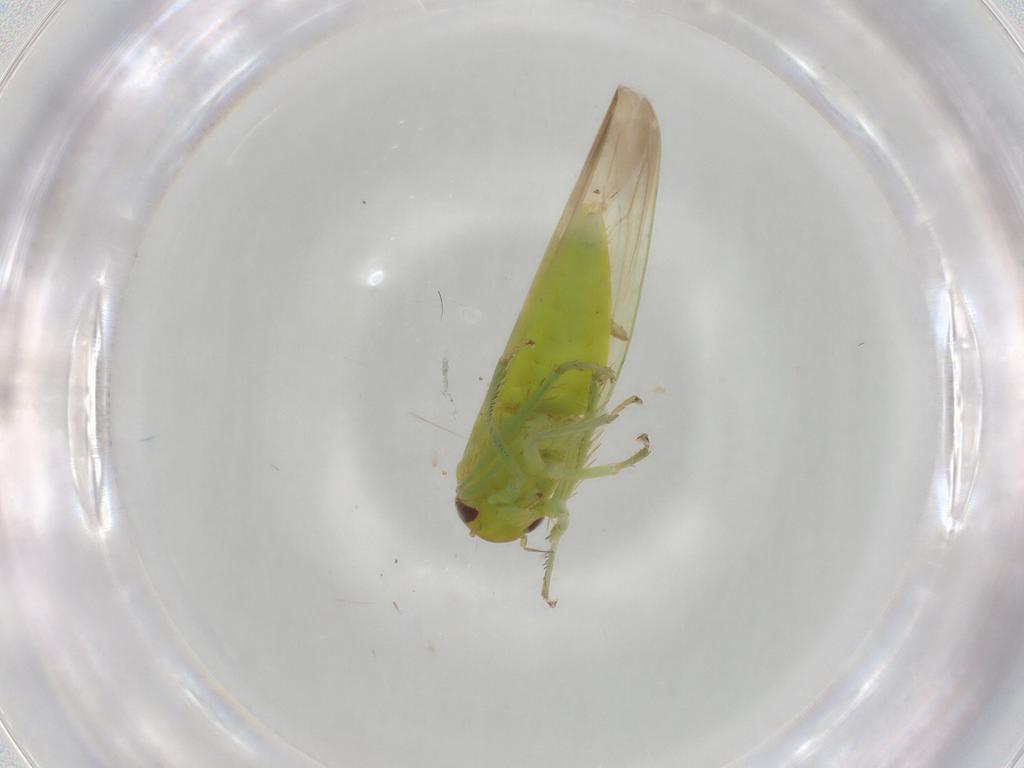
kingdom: Animalia
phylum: Arthropoda
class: Insecta
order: Hemiptera
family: Cicadellidae
